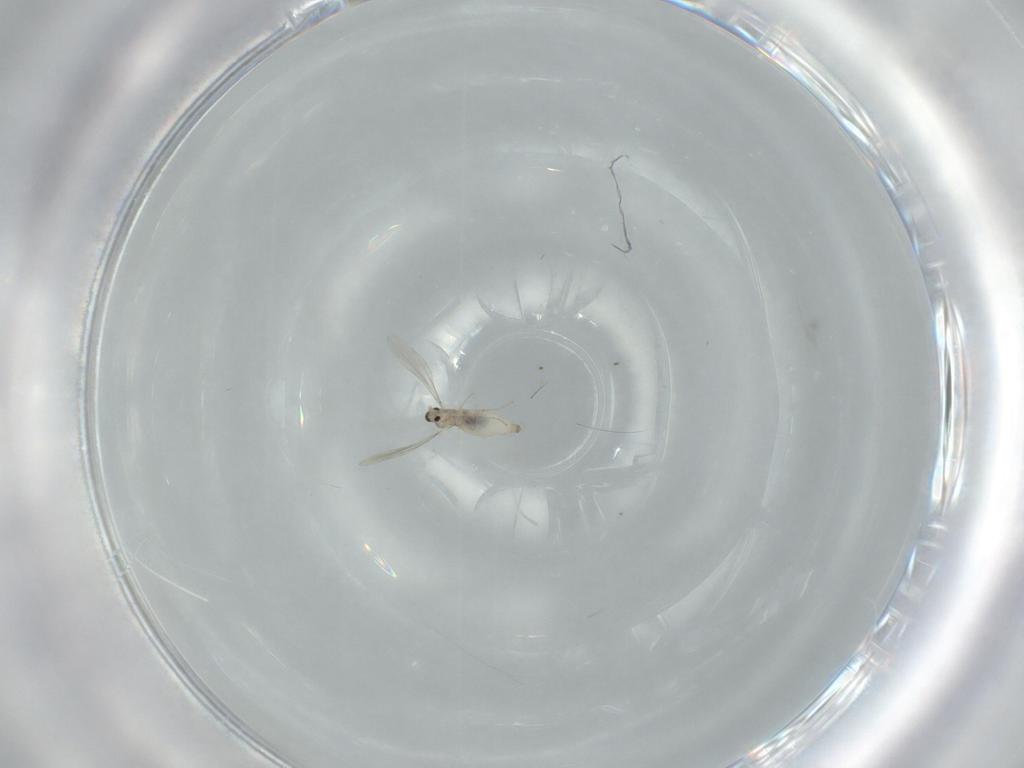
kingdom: Animalia
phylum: Arthropoda
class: Insecta
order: Diptera
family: Cecidomyiidae
